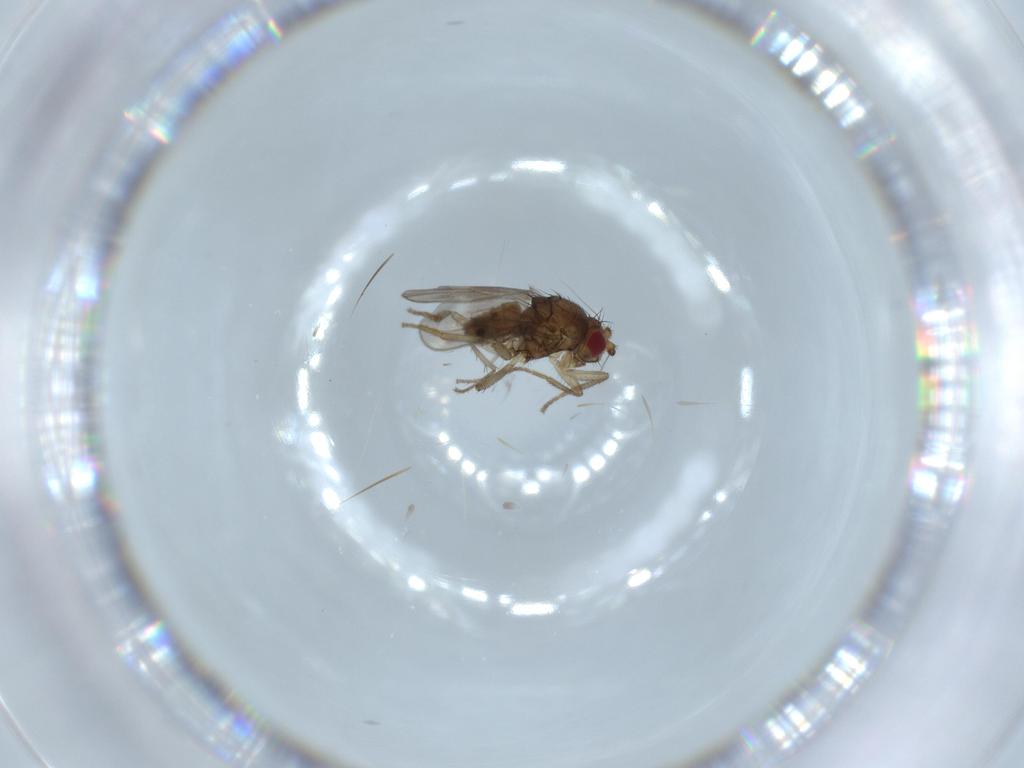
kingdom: Animalia
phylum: Arthropoda
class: Insecta
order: Diptera
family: Sphaeroceridae
